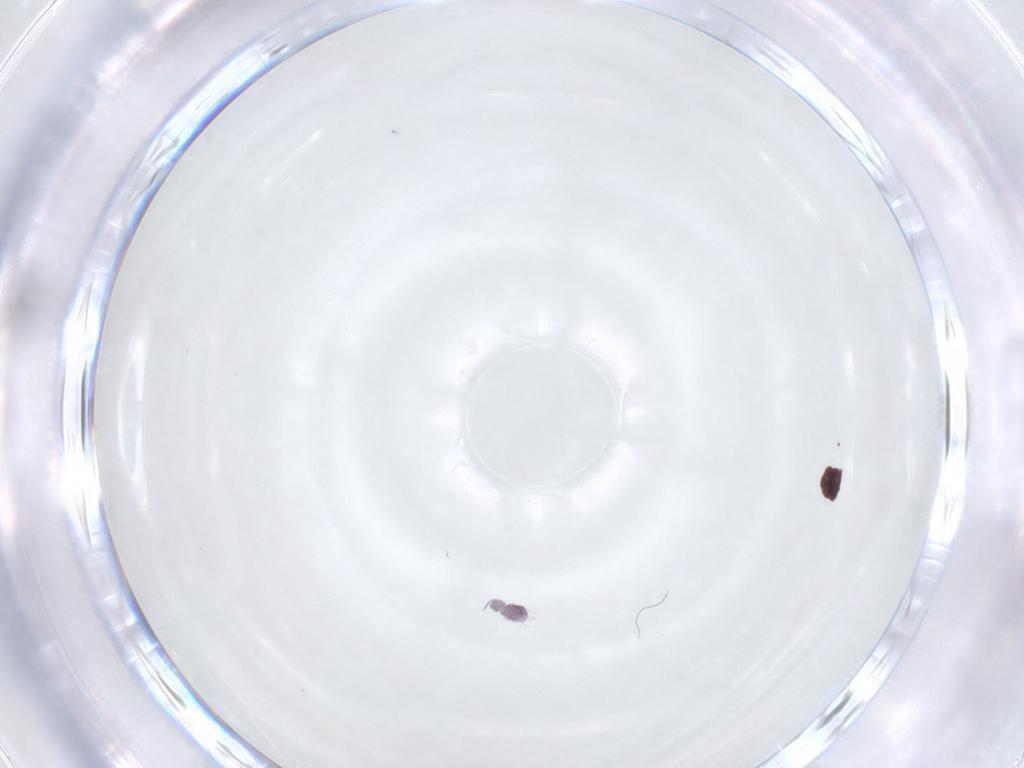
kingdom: Animalia
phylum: Arthropoda
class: Collembola
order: Symphypleona
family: Sminthurididae
